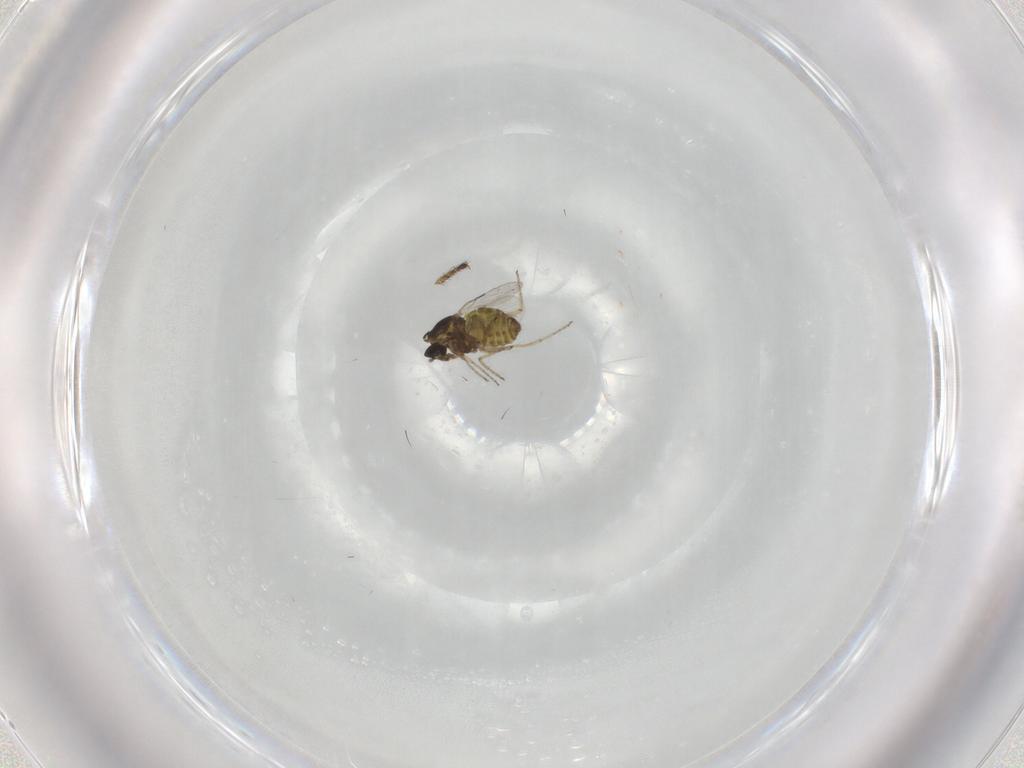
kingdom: Animalia
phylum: Arthropoda
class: Insecta
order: Diptera
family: Ceratopogonidae
